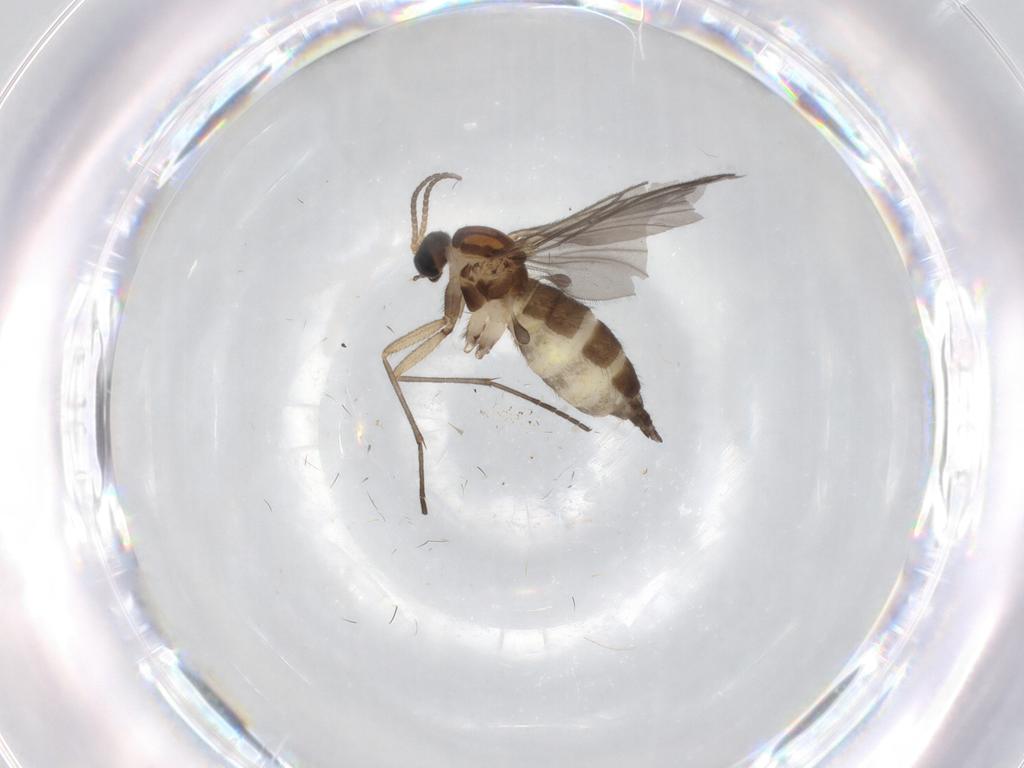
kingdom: Animalia
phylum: Arthropoda
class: Insecta
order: Diptera
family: Sciaridae
